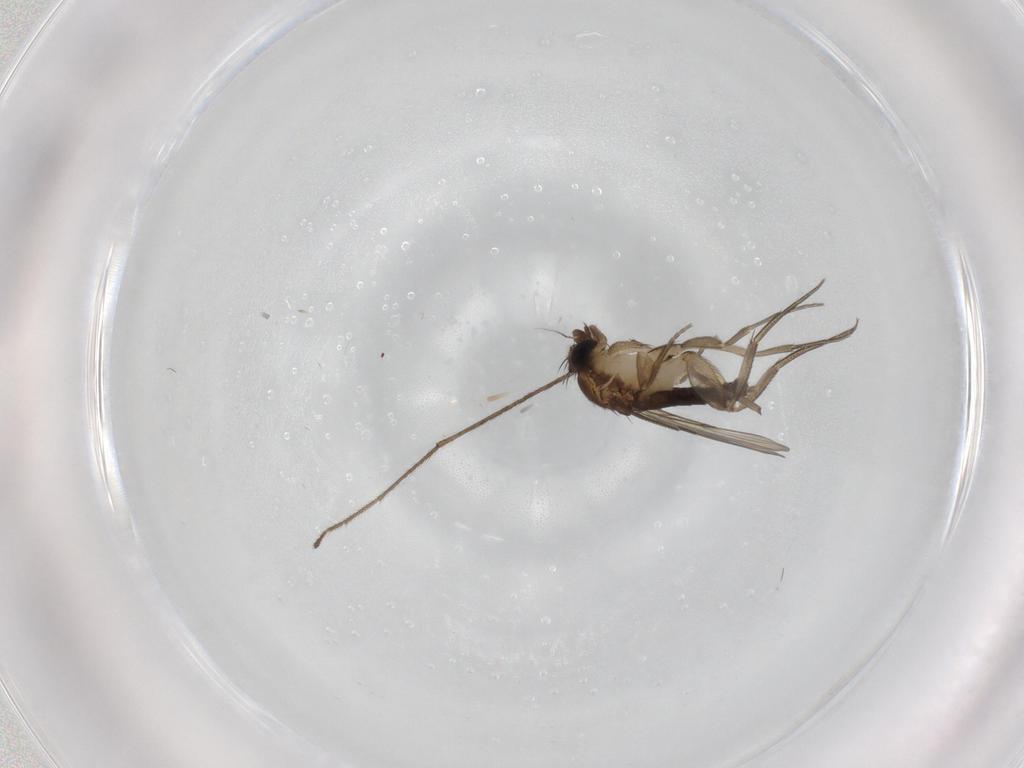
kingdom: Animalia
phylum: Arthropoda
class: Insecta
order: Diptera
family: Phoridae
